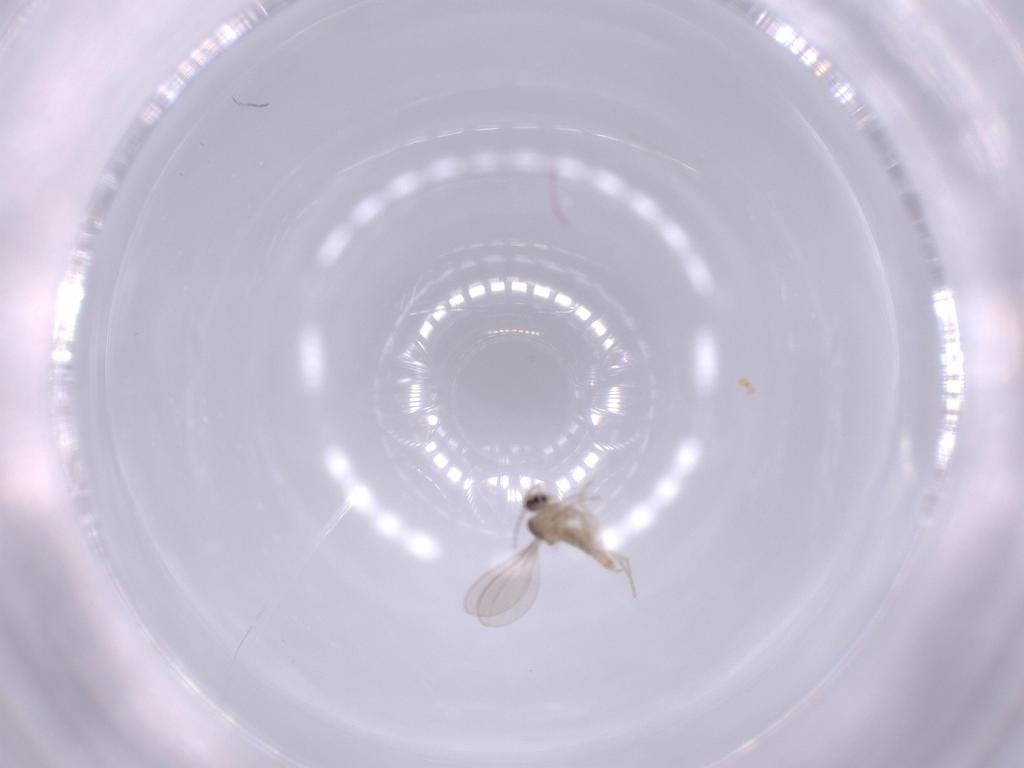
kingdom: Animalia
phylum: Arthropoda
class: Insecta
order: Diptera
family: Cecidomyiidae
